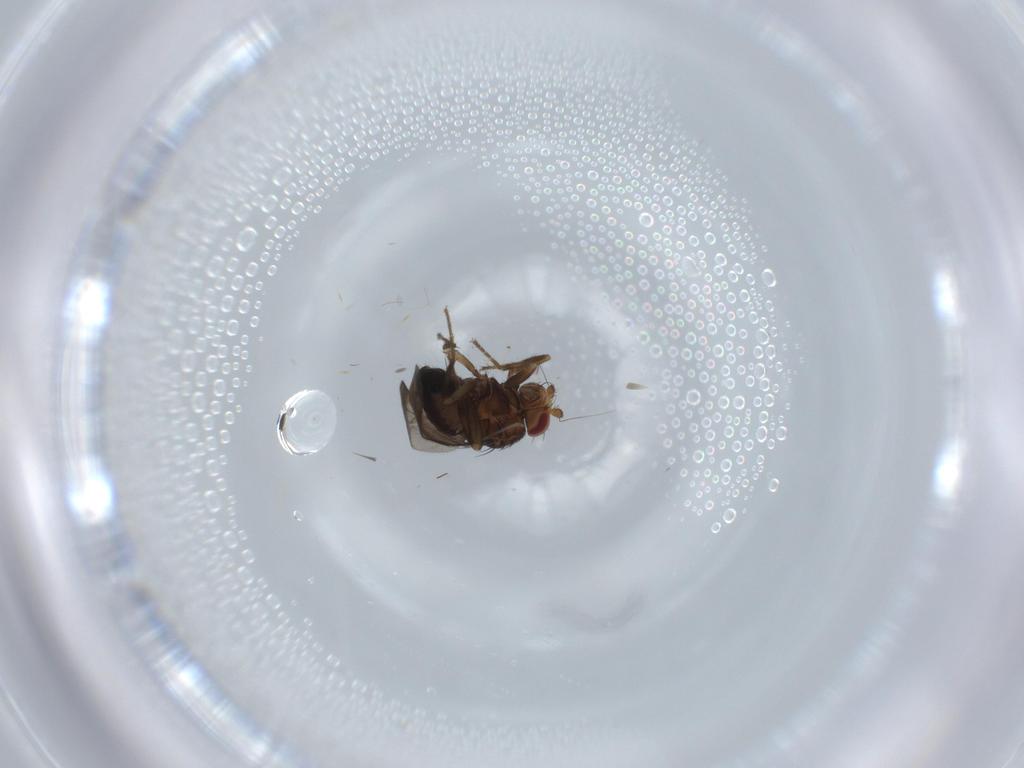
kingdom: Animalia
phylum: Arthropoda
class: Insecta
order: Diptera
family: Sphaeroceridae
